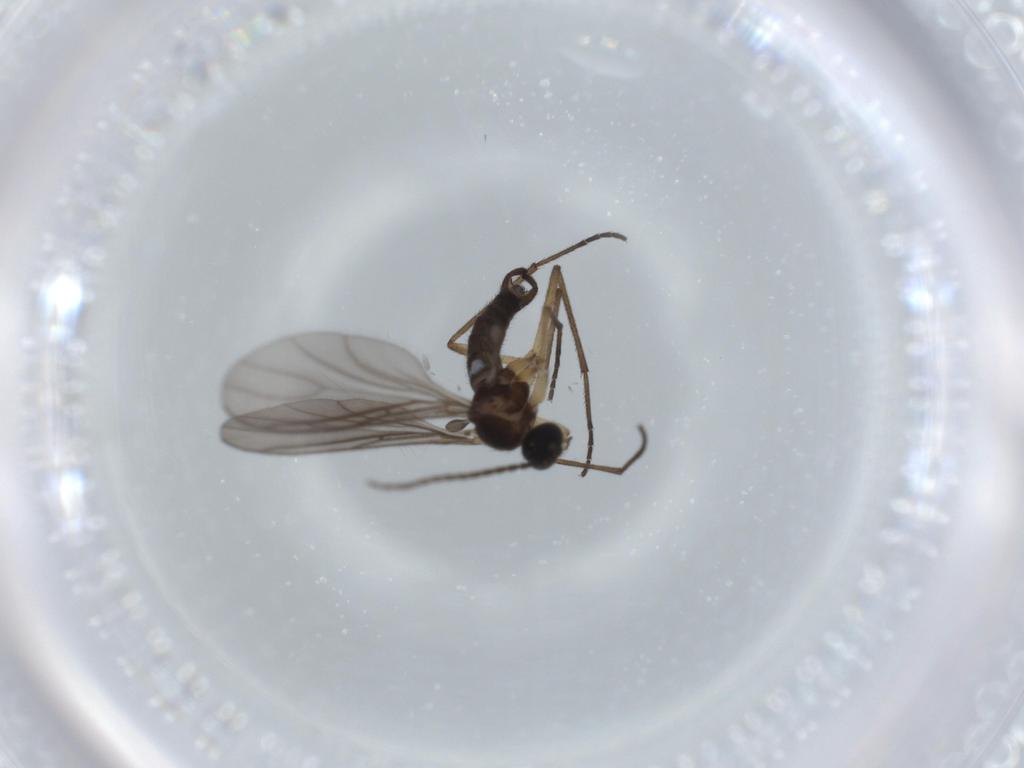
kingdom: Animalia
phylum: Arthropoda
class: Insecta
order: Diptera
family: Sciaridae
